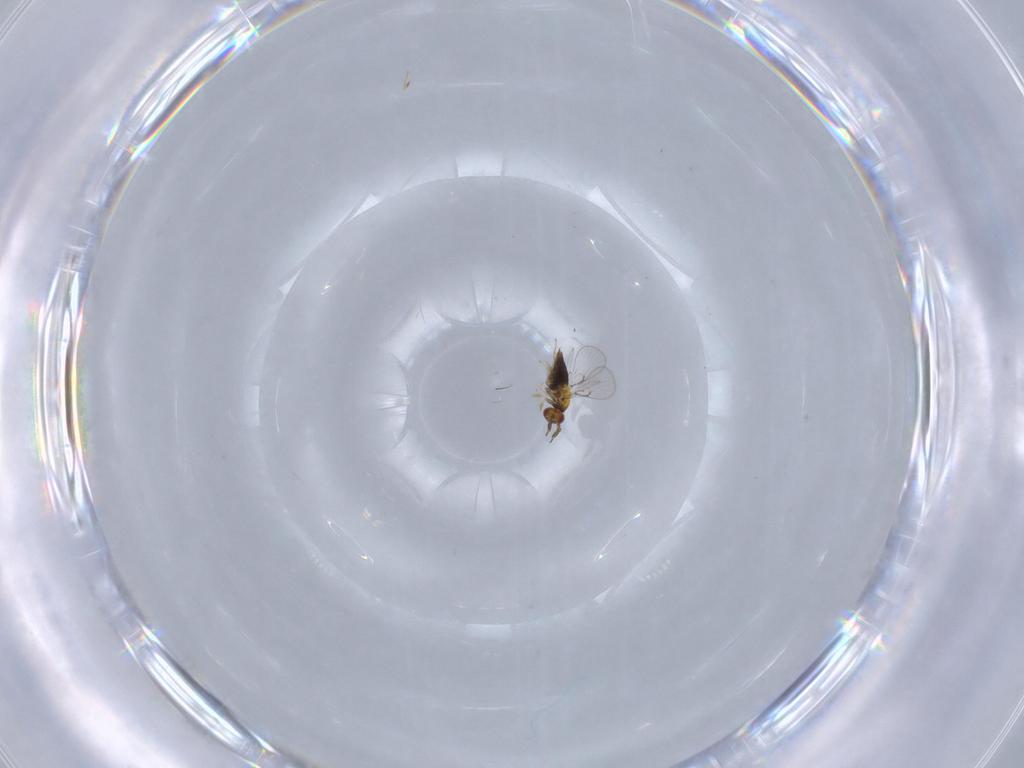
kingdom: Animalia
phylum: Arthropoda
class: Insecta
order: Hymenoptera
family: Trichogrammatidae
